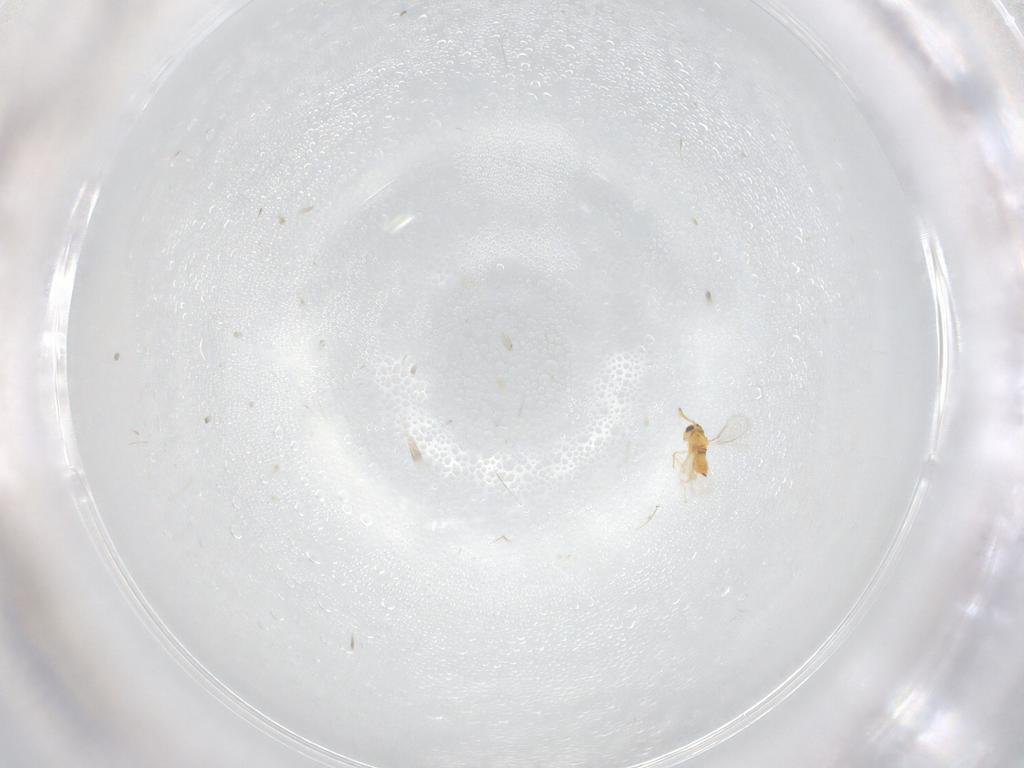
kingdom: Animalia
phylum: Arthropoda
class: Insecta
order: Hymenoptera
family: Aphelinidae
